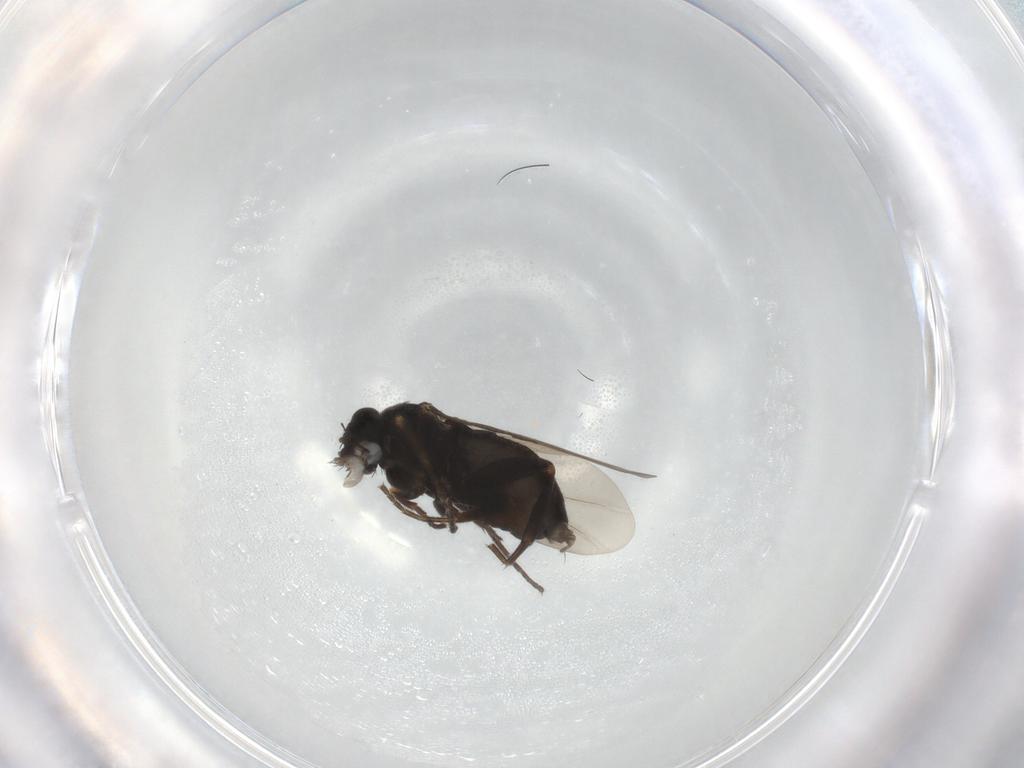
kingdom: Animalia
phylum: Arthropoda
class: Insecta
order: Diptera
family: Phoridae
